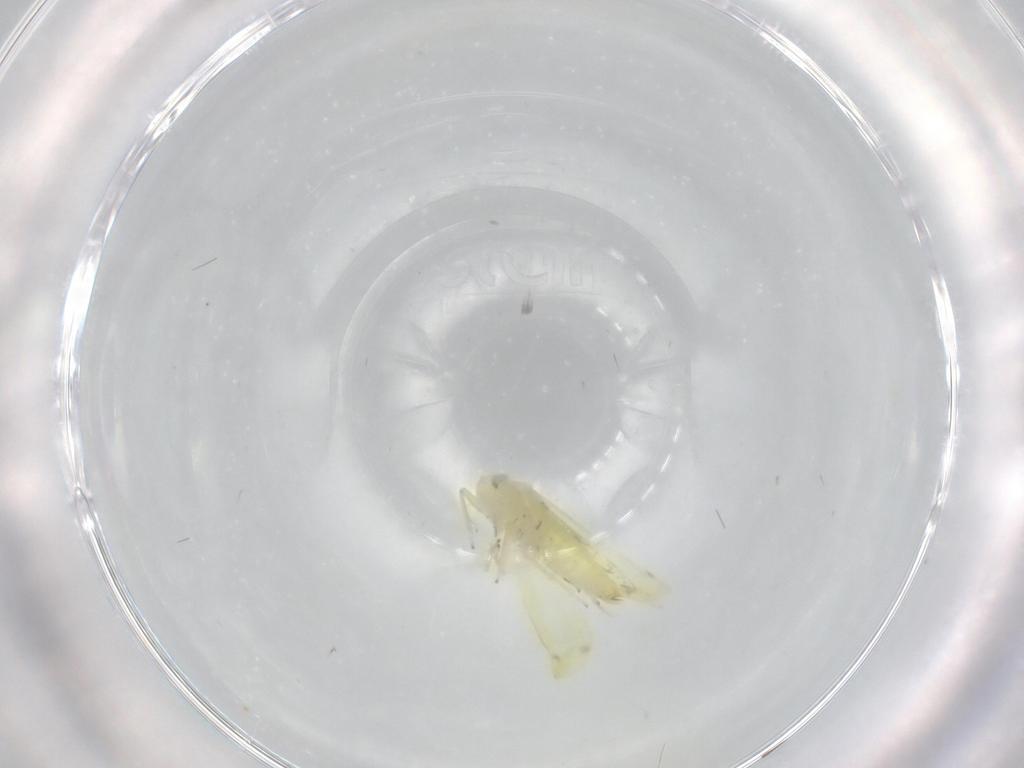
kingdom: Animalia
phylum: Arthropoda
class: Insecta
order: Hemiptera
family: Cicadellidae
